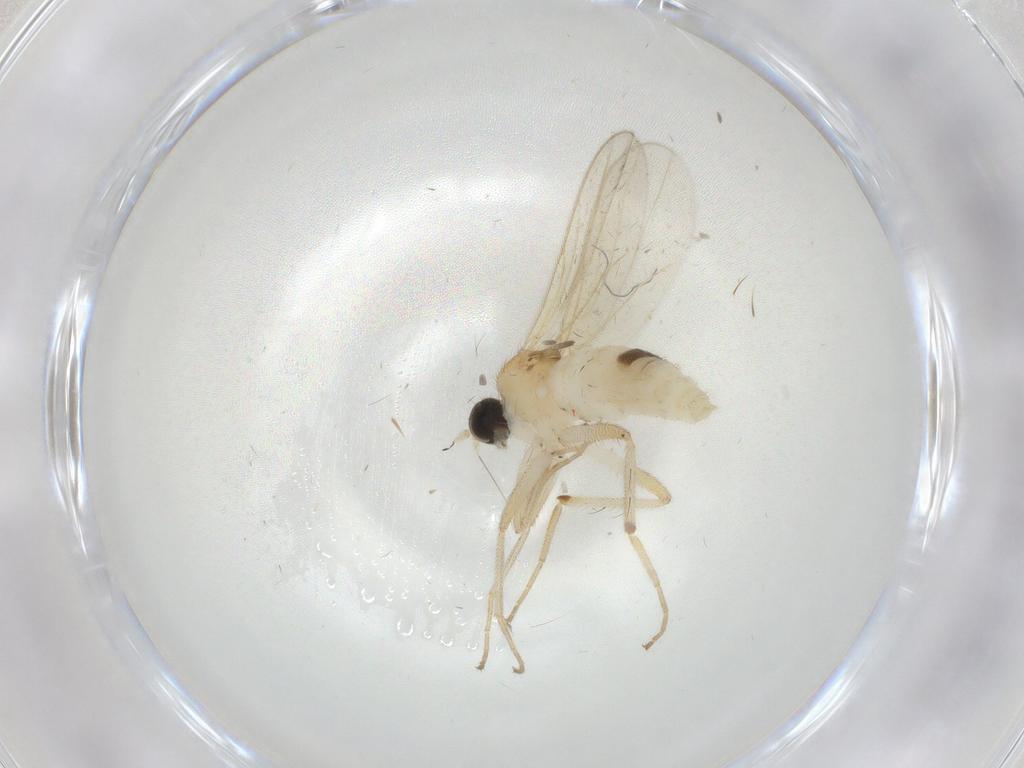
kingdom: Animalia
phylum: Arthropoda
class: Insecta
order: Diptera
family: Hybotidae
